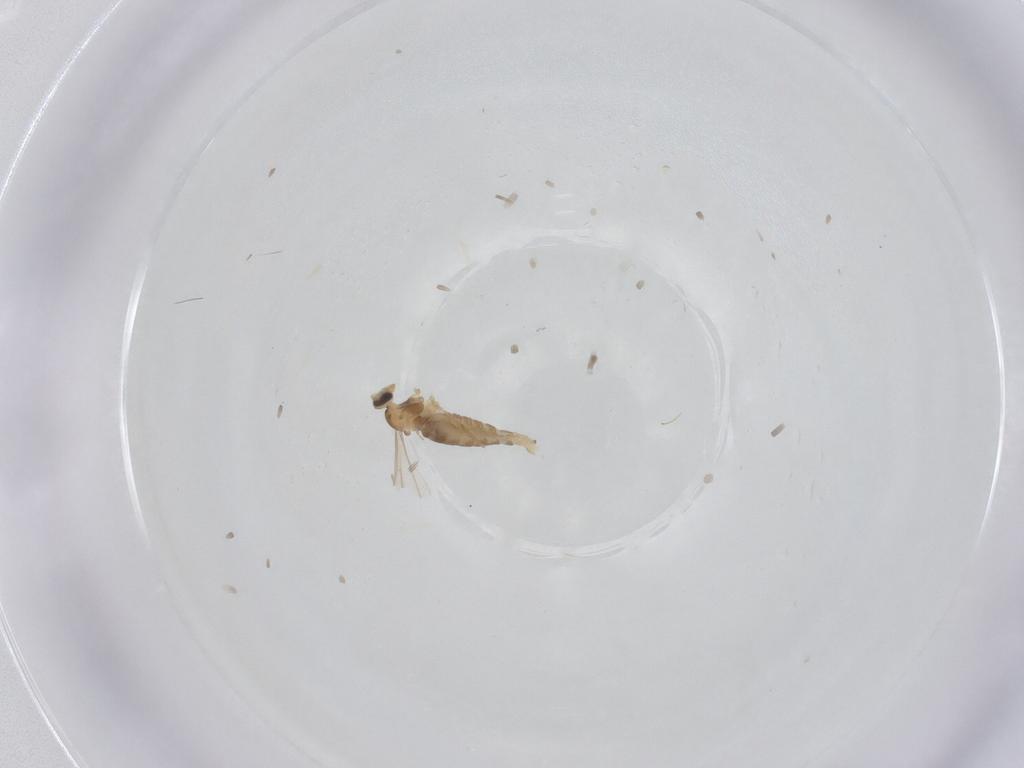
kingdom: Animalia
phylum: Arthropoda
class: Insecta
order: Diptera
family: Cecidomyiidae
